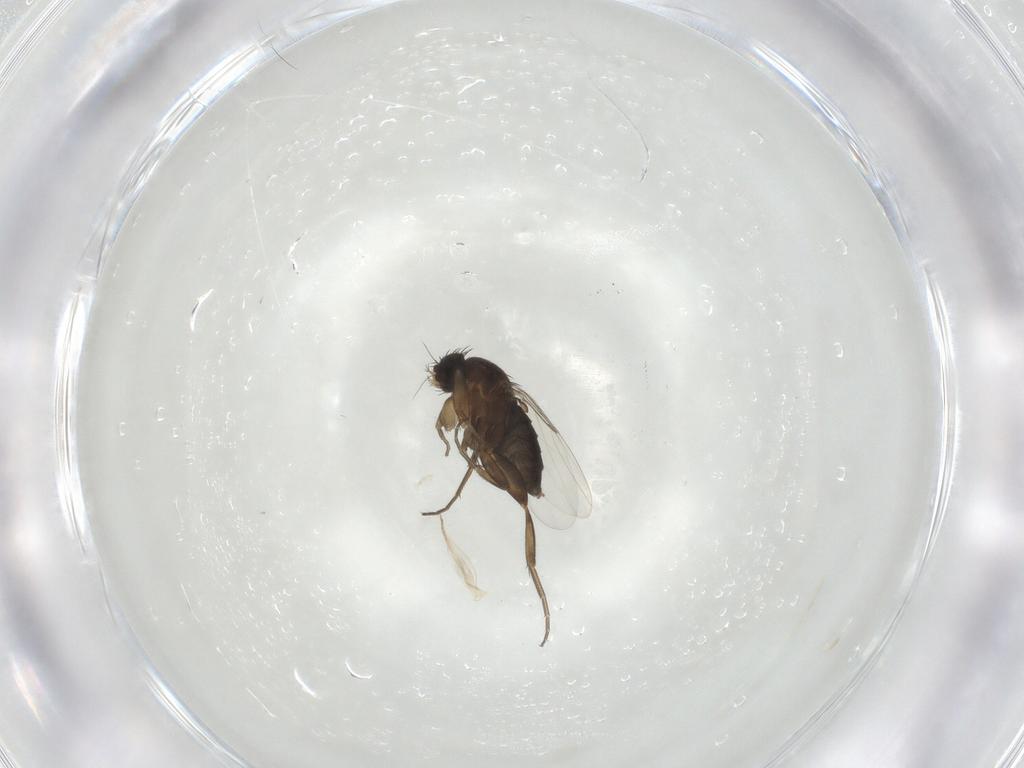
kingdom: Animalia
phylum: Arthropoda
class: Insecta
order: Diptera
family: Phoridae
